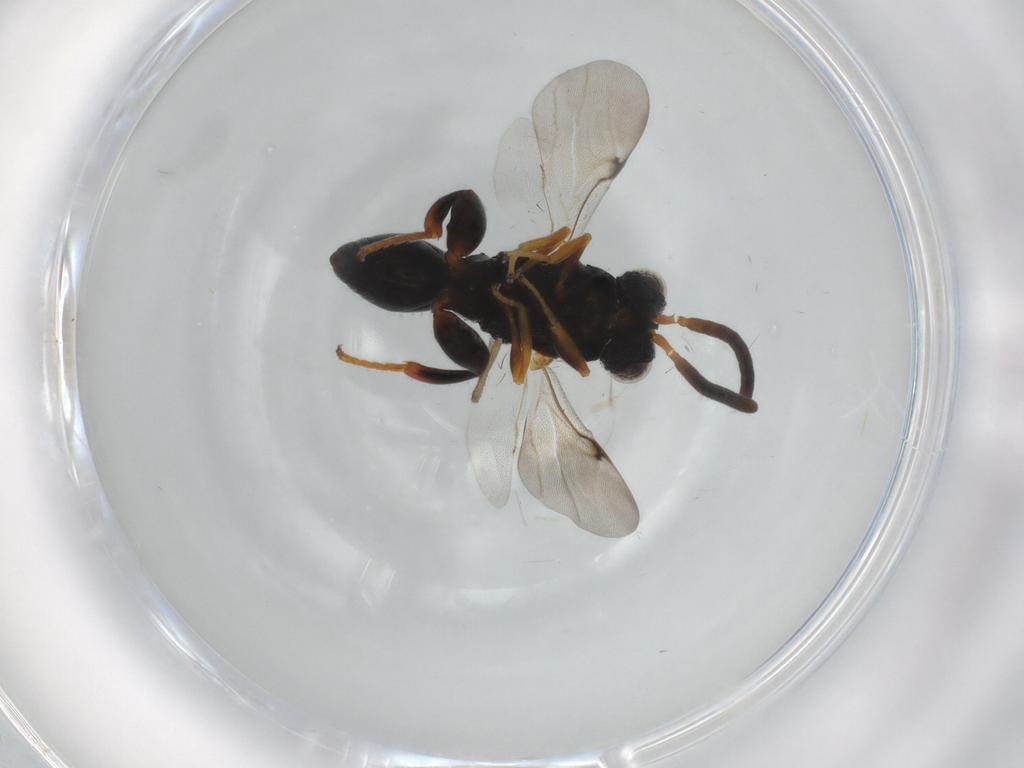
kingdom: Animalia
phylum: Arthropoda
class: Insecta
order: Hymenoptera
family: Chalcididae
